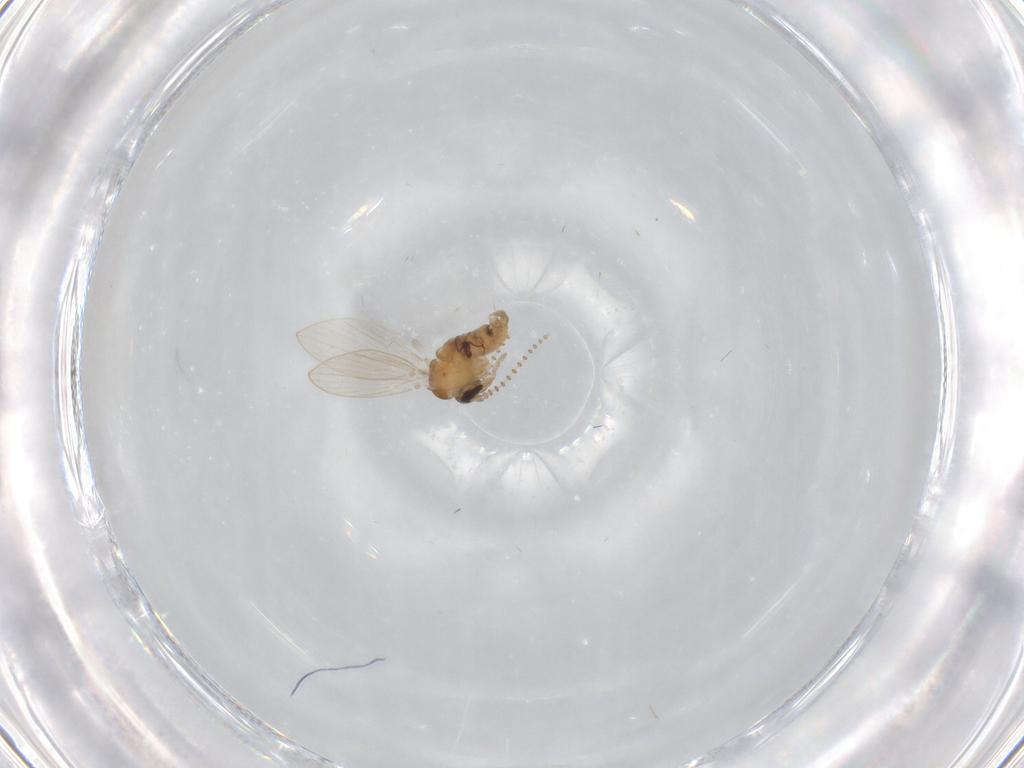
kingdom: Animalia
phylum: Arthropoda
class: Insecta
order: Diptera
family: Psychodidae
